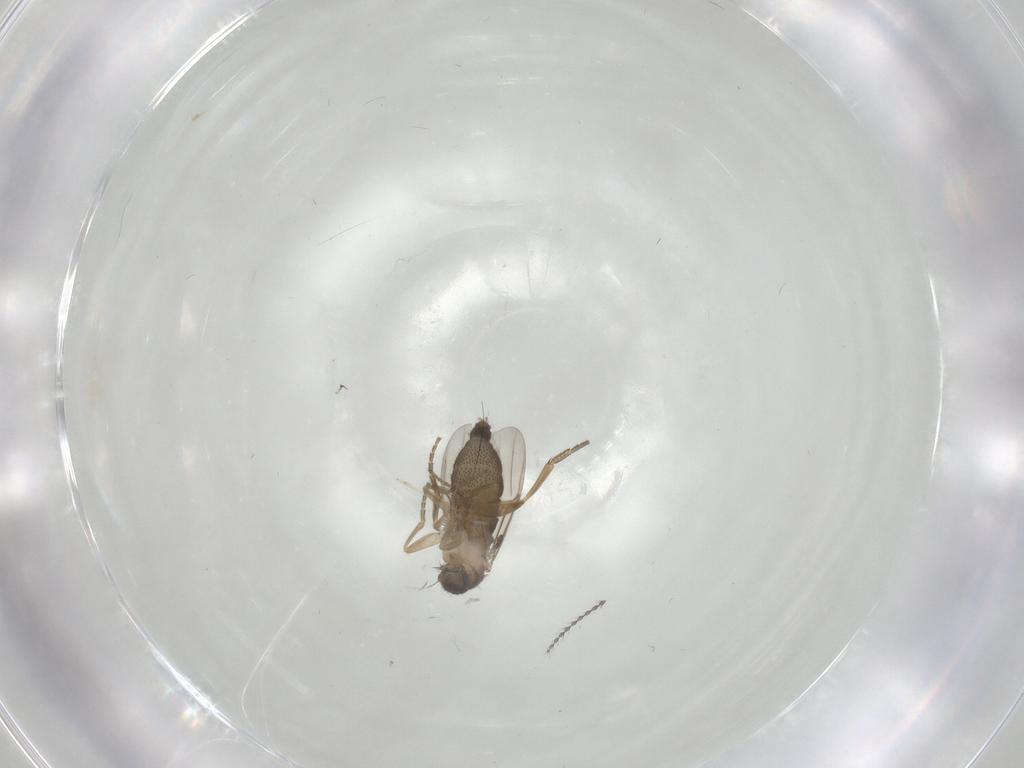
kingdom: Animalia
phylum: Arthropoda
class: Insecta
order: Diptera
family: Cecidomyiidae
